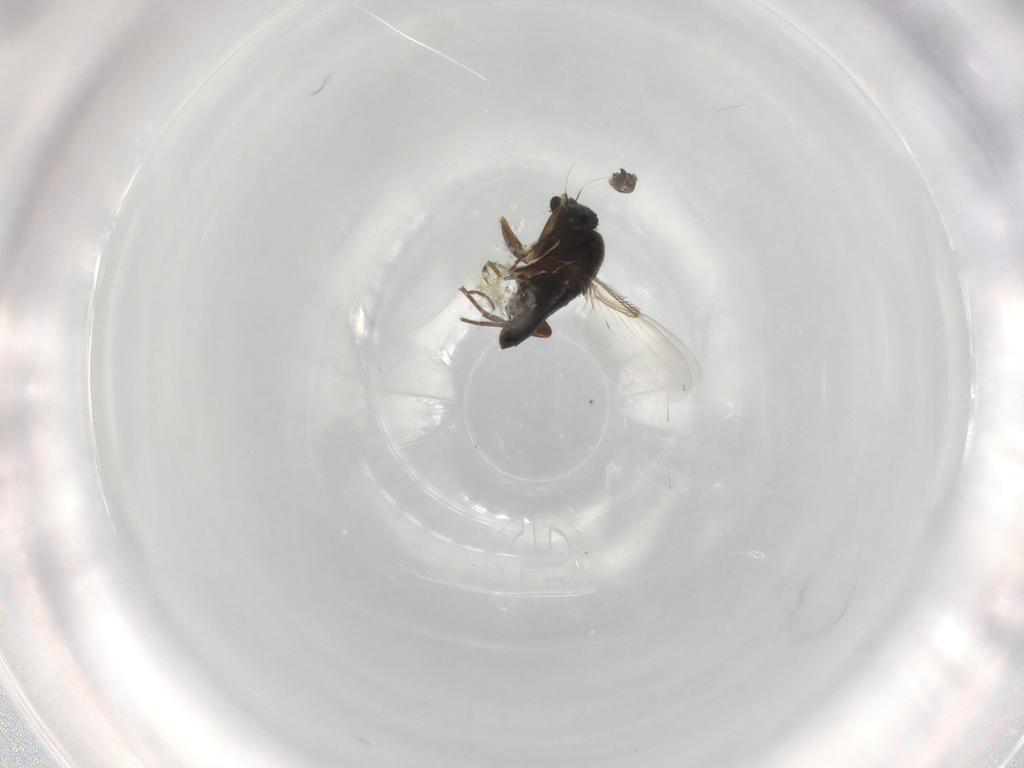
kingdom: Animalia
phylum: Arthropoda
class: Insecta
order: Diptera
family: Phoridae
